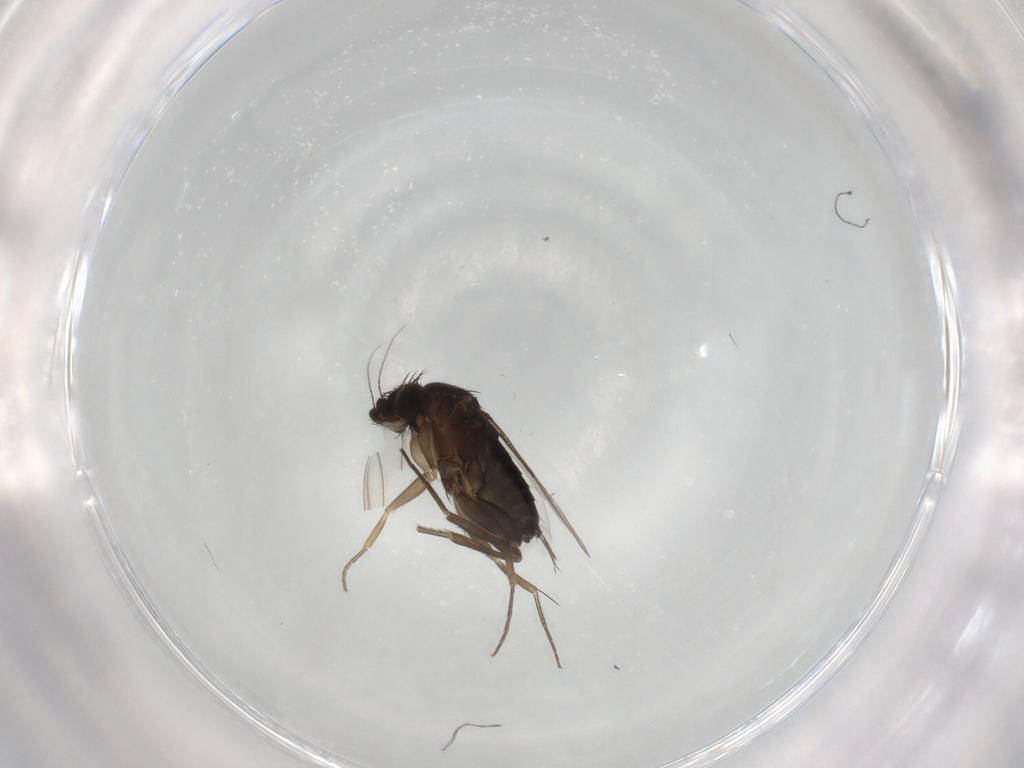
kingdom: Animalia
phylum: Arthropoda
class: Insecta
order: Diptera
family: Phoridae
